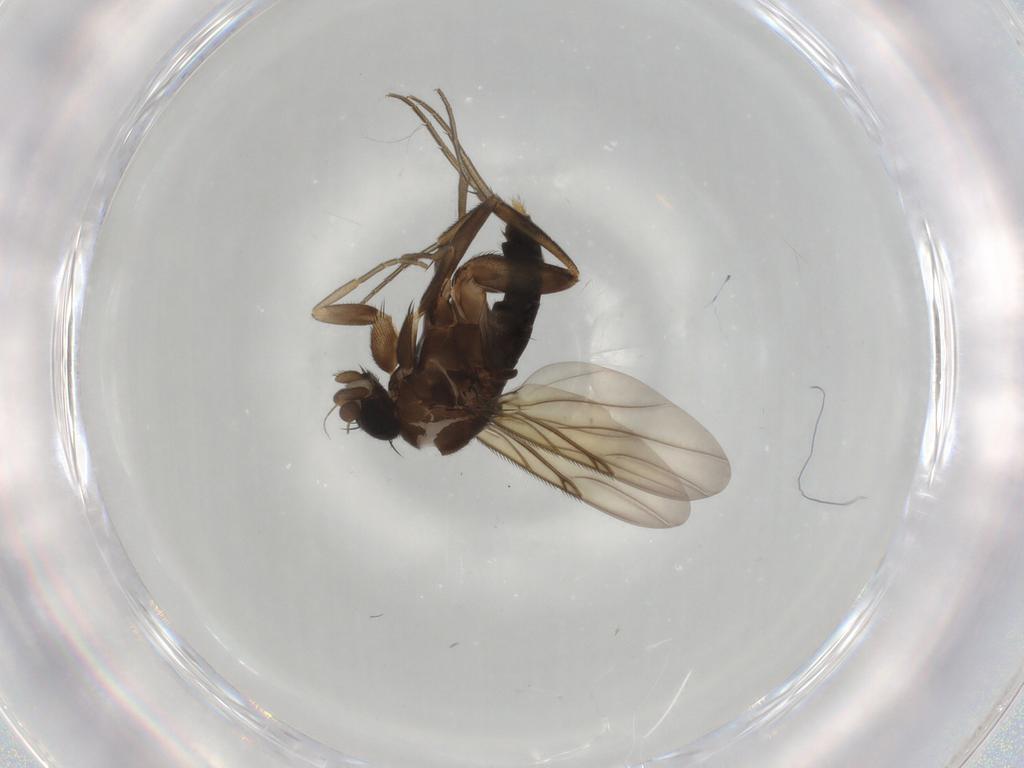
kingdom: Animalia
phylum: Arthropoda
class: Insecta
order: Diptera
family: Phoridae
